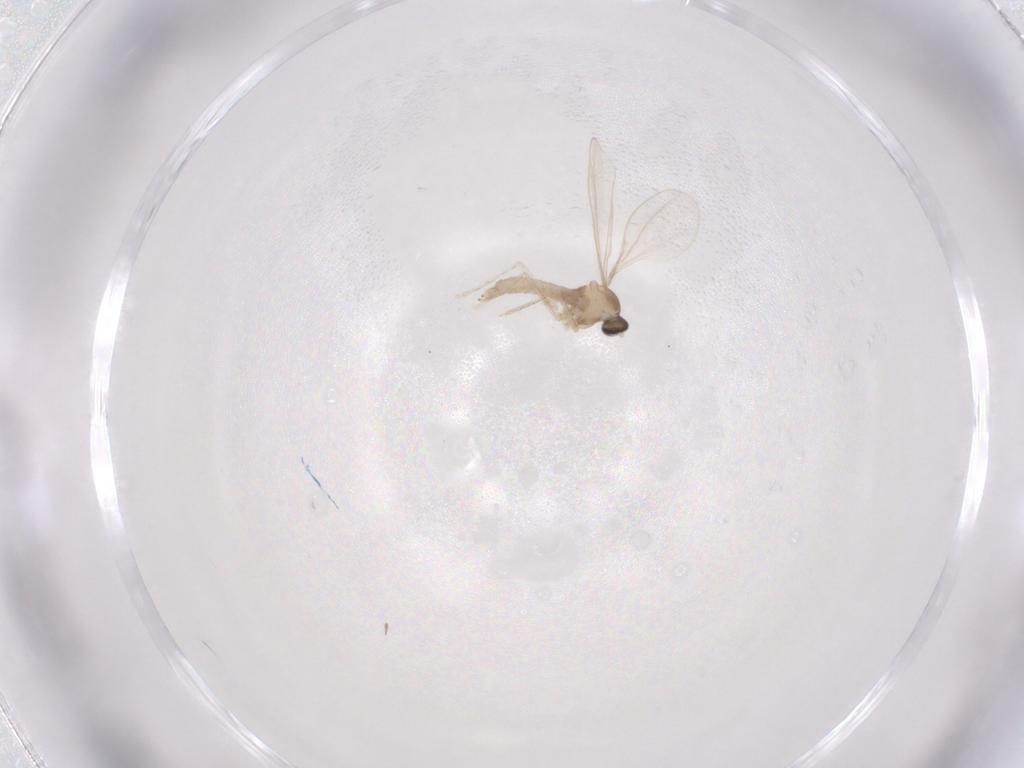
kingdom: Animalia
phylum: Arthropoda
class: Insecta
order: Diptera
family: Cecidomyiidae
